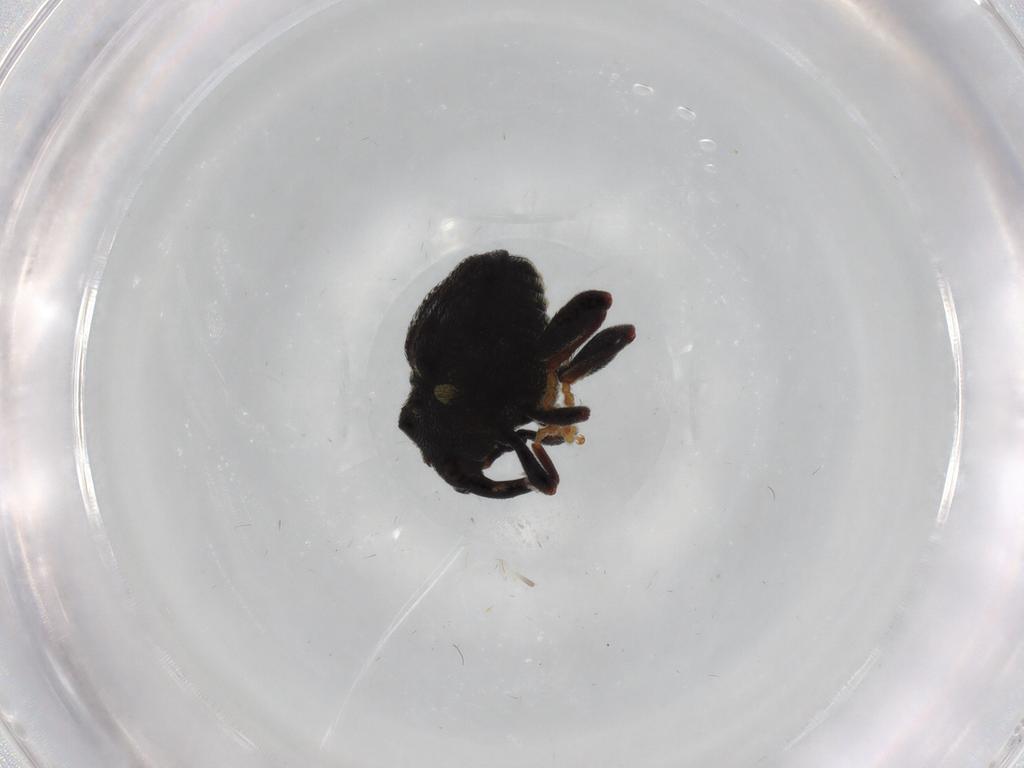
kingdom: Animalia
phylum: Arthropoda
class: Insecta
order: Coleoptera
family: Curculionidae
